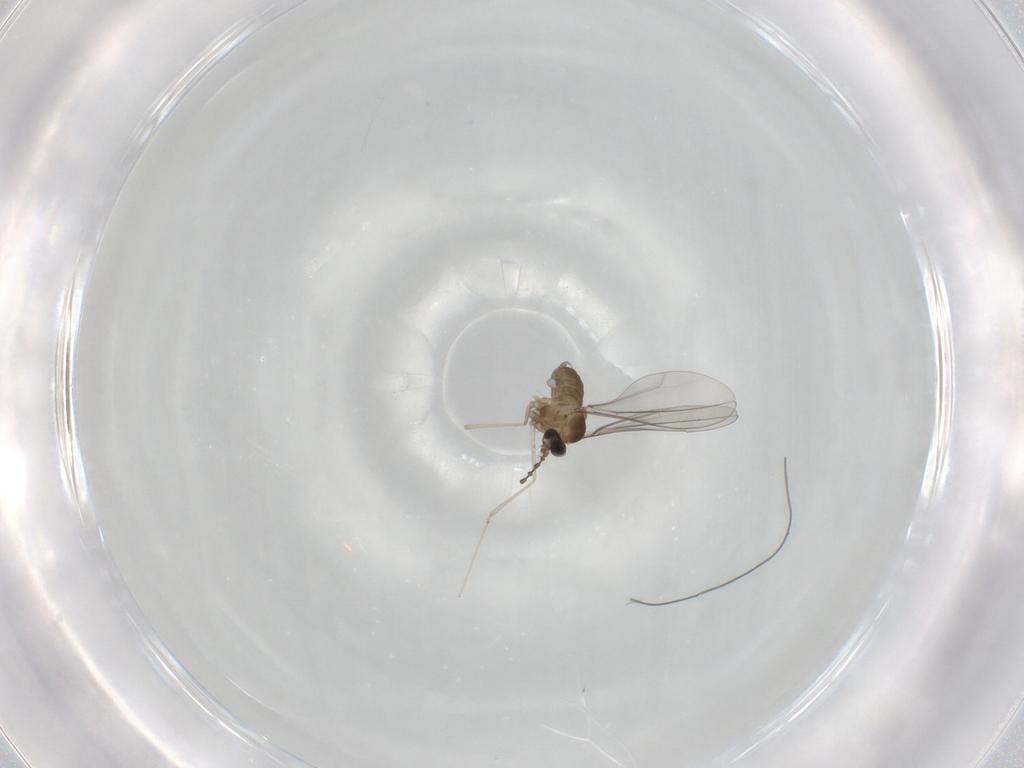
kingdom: Animalia
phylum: Arthropoda
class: Insecta
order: Diptera
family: Cecidomyiidae
